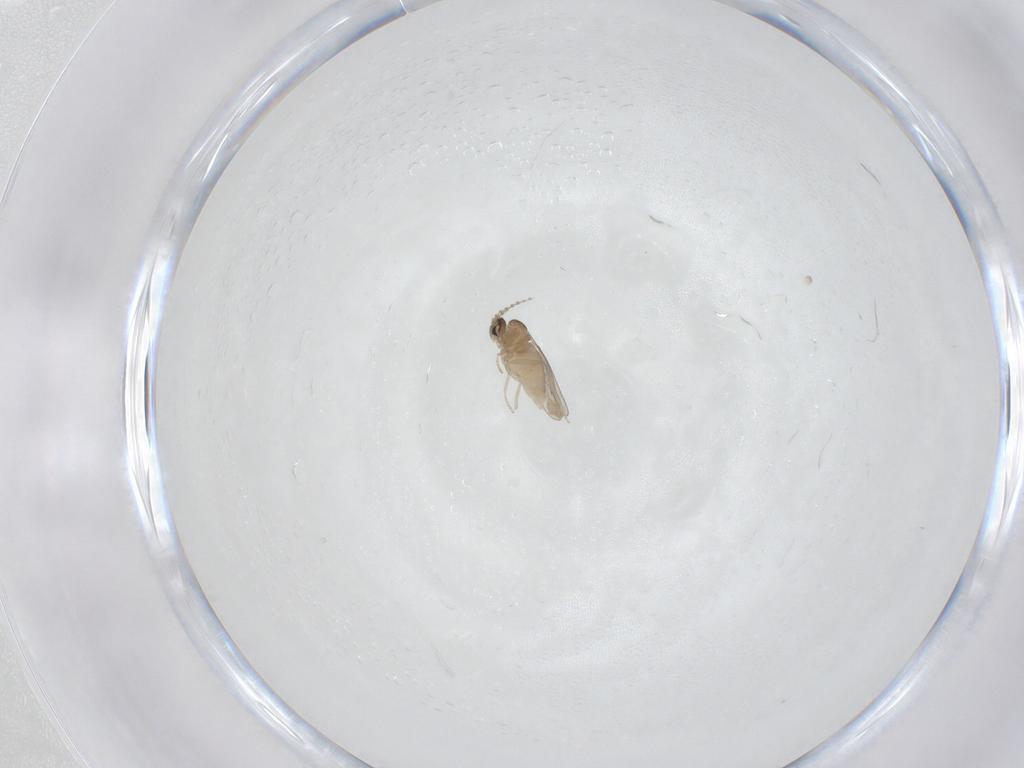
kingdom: Animalia
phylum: Arthropoda
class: Insecta
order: Diptera
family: Cecidomyiidae
